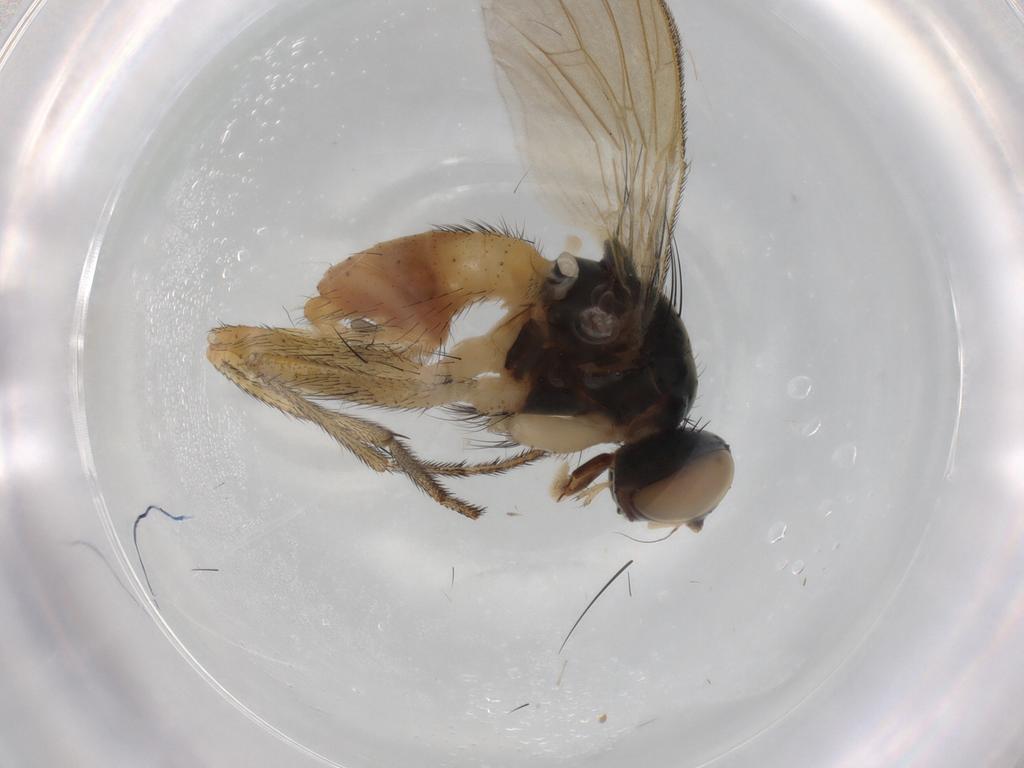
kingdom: Animalia
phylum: Arthropoda
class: Insecta
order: Diptera
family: Muscidae
